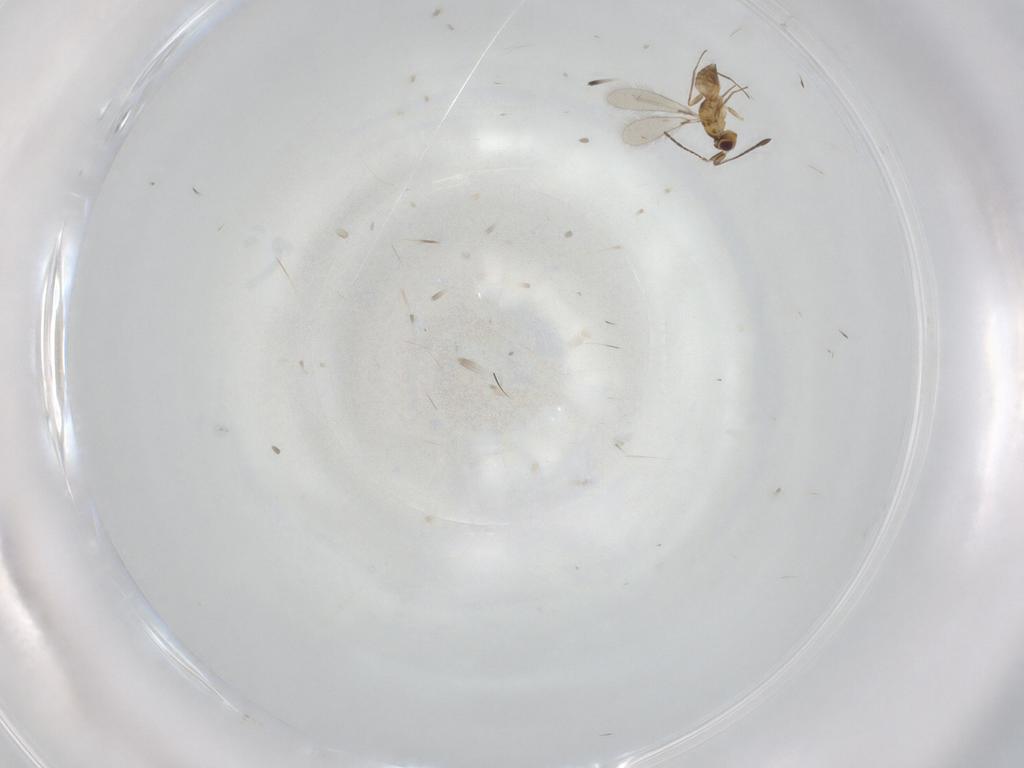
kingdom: Animalia
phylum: Arthropoda
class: Insecta
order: Hymenoptera
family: Mymaridae
